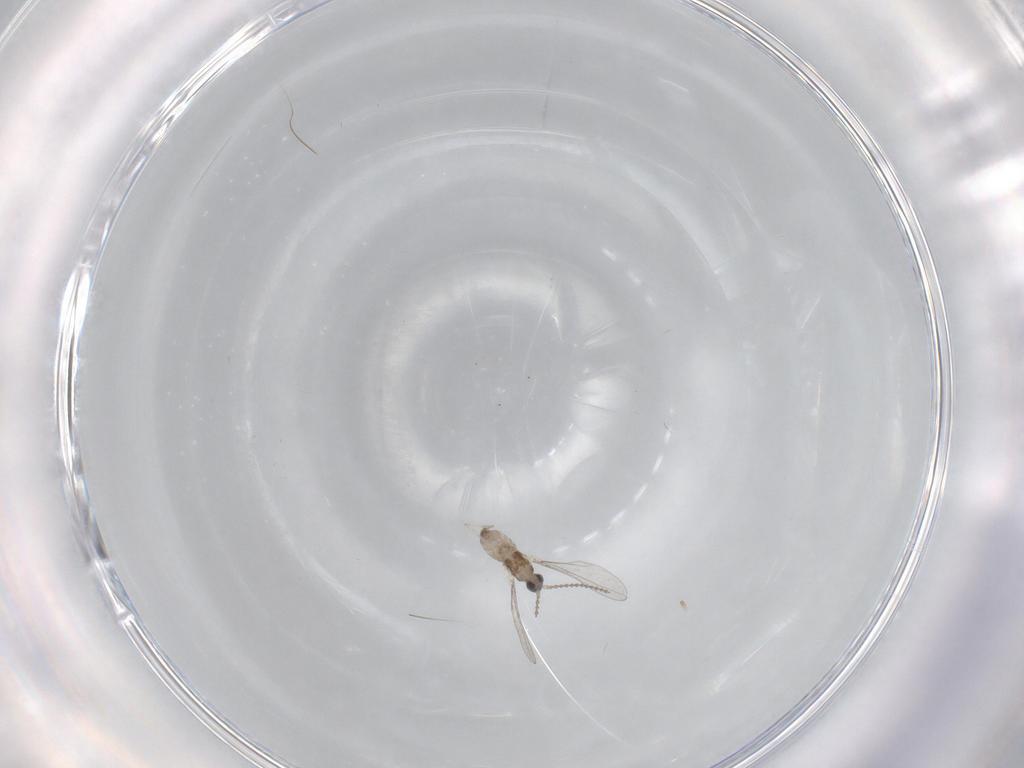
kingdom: Animalia
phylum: Arthropoda
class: Insecta
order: Diptera
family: Cecidomyiidae
